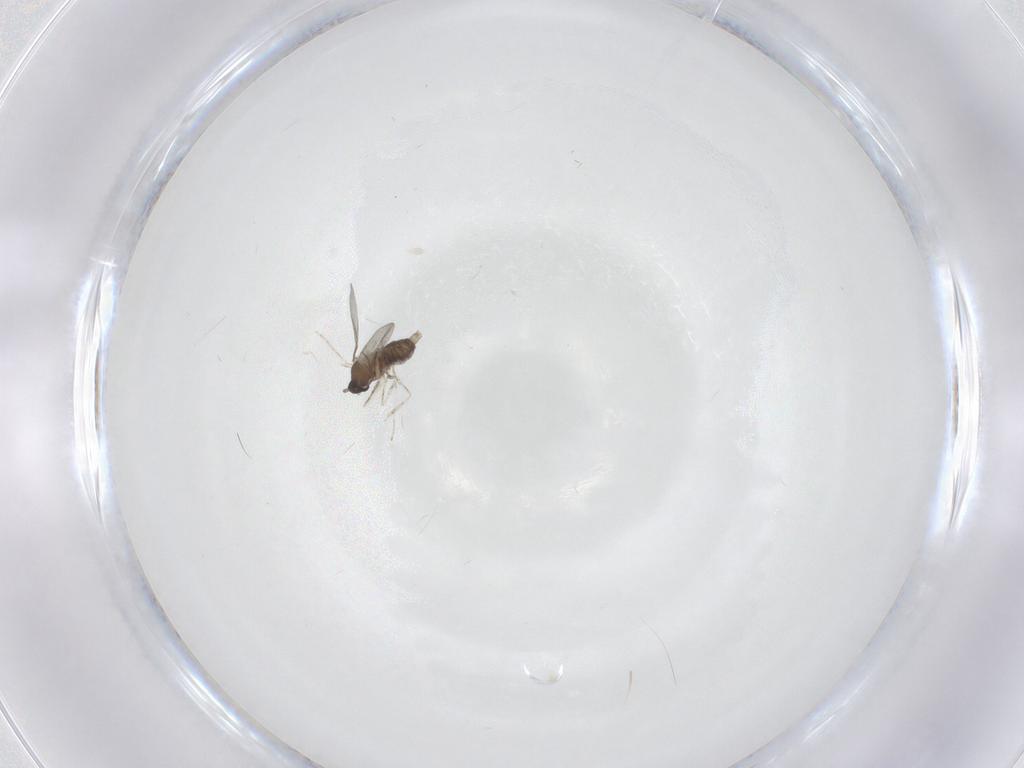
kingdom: Animalia
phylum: Arthropoda
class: Insecta
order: Diptera
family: Cecidomyiidae
